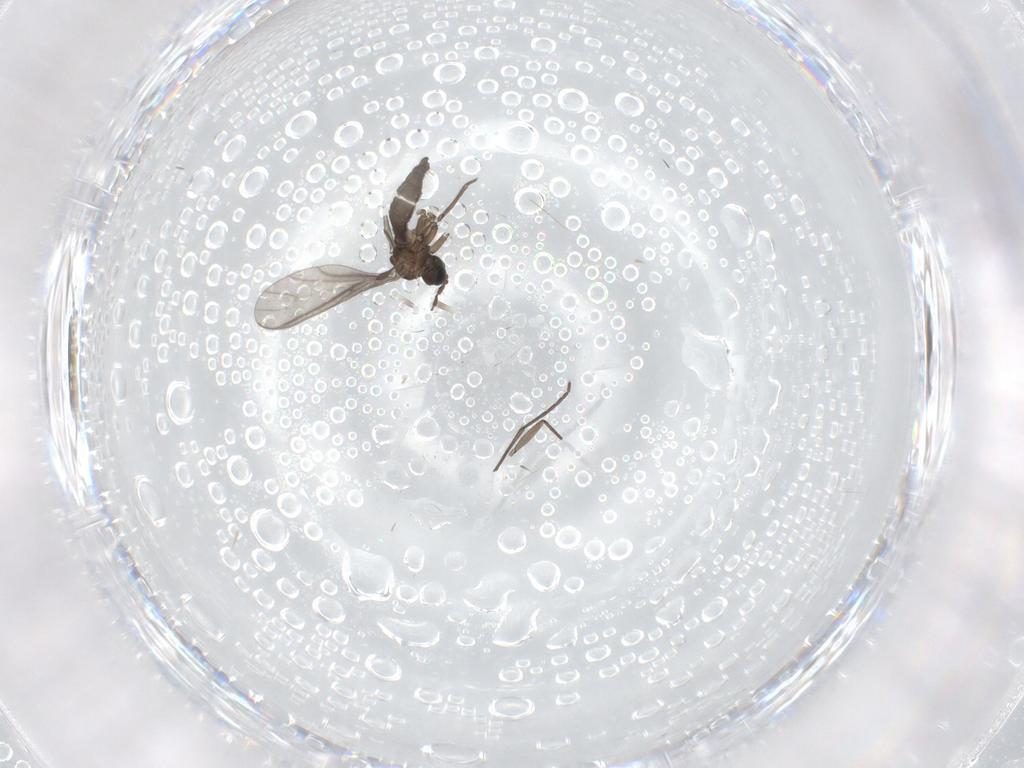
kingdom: Animalia
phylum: Arthropoda
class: Insecta
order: Diptera
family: Sciaridae
